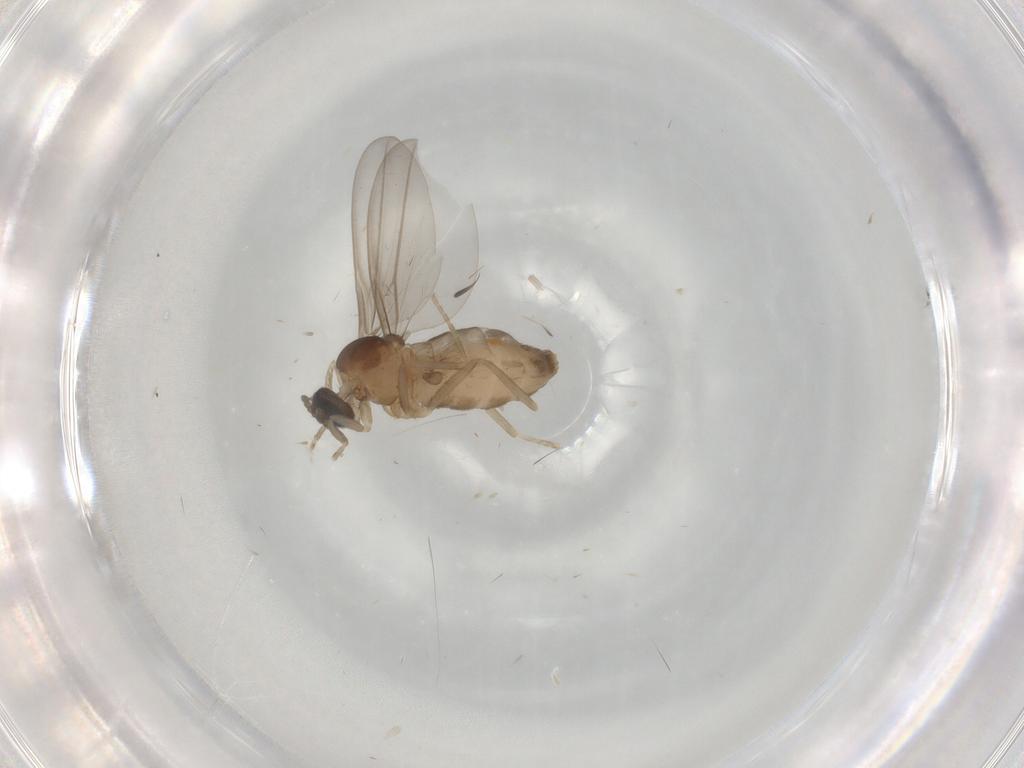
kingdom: Animalia
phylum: Arthropoda
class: Insecta
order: Diptera
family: Cecidomyiidae
